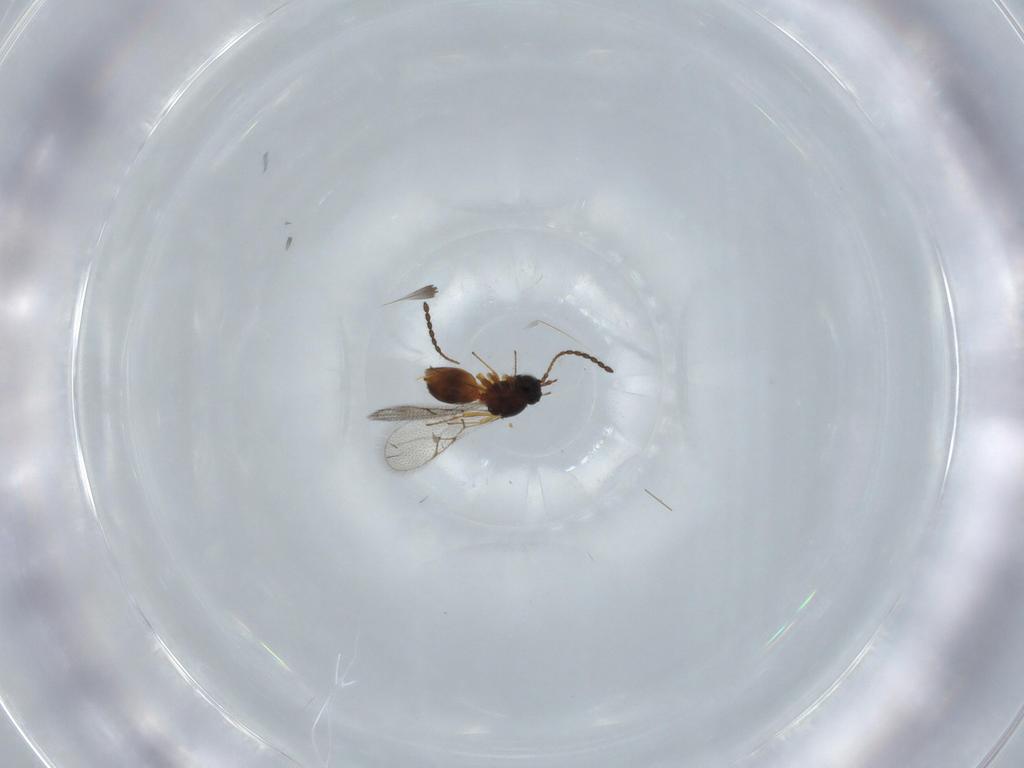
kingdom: Animalia
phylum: Arthropoda
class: Insecta
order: Hymenoptera
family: Figitidae
